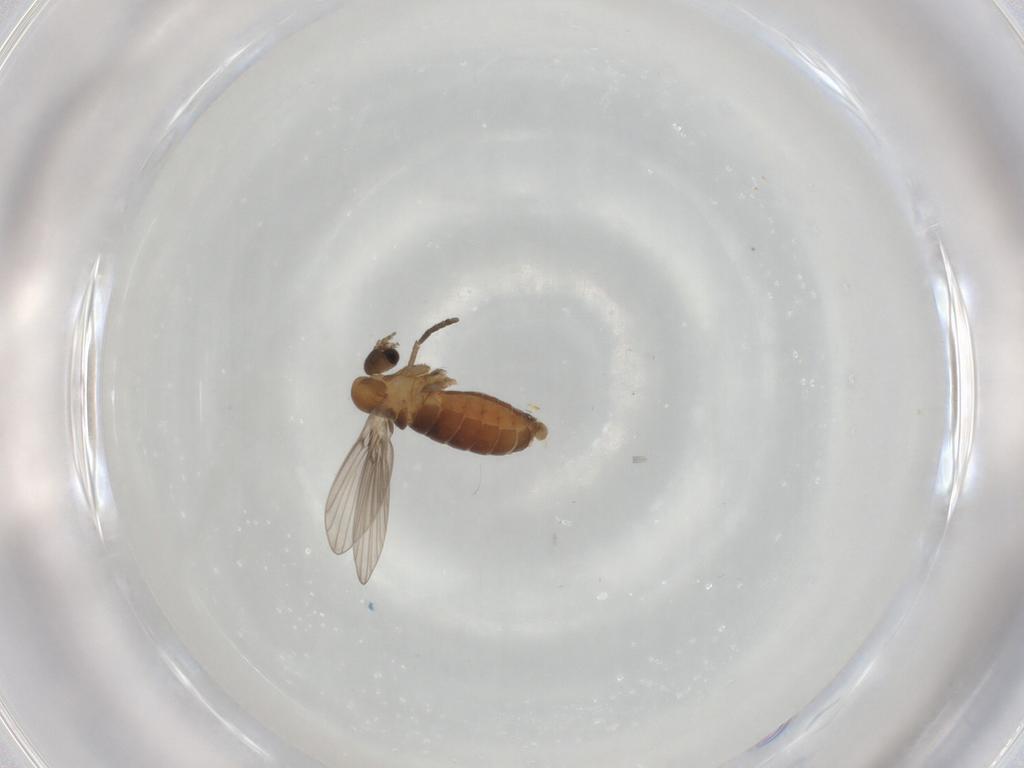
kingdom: Animalia
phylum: Arthropoda
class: Insecta
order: Diptera
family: Psychodidae
